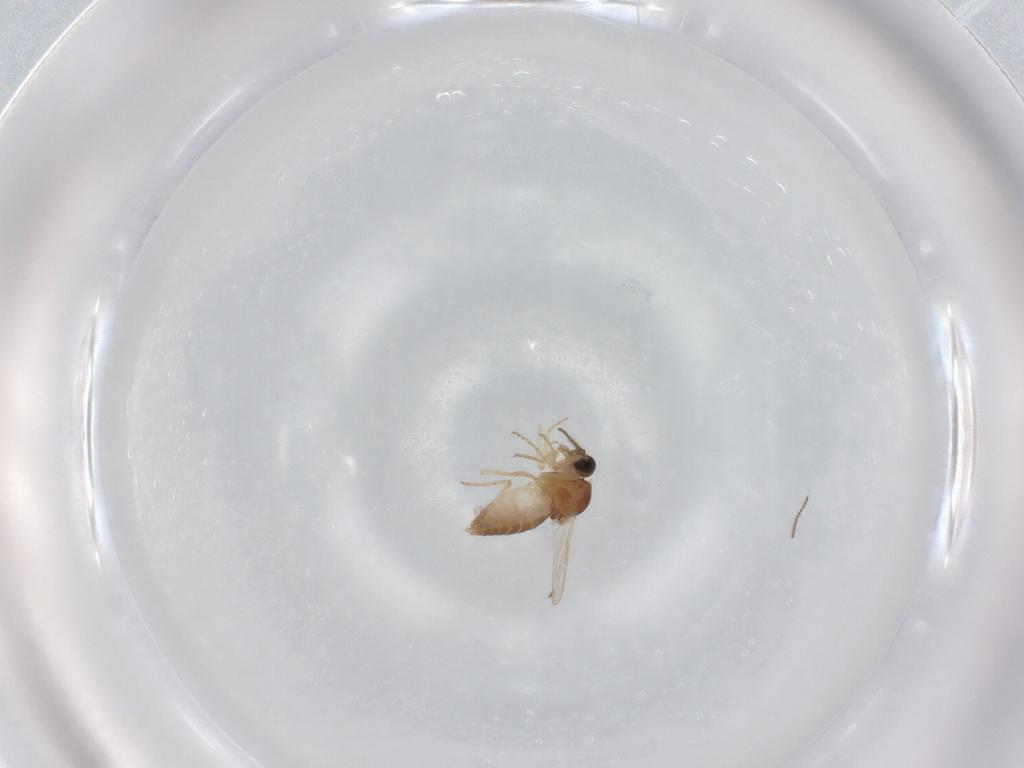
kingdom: Animalia
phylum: Arthropoda
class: Insecta
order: Diptera
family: Ceratopogonidae
